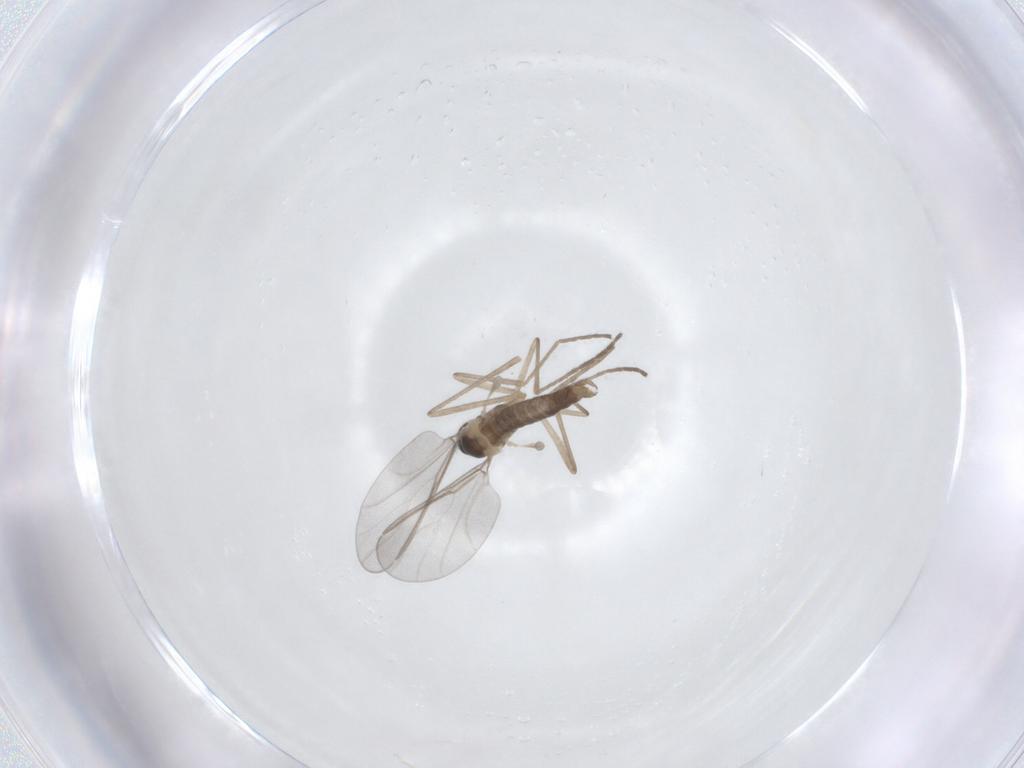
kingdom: Animalia
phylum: Arthropoda
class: Insecta
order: Diptera
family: Cecidomyiidae
